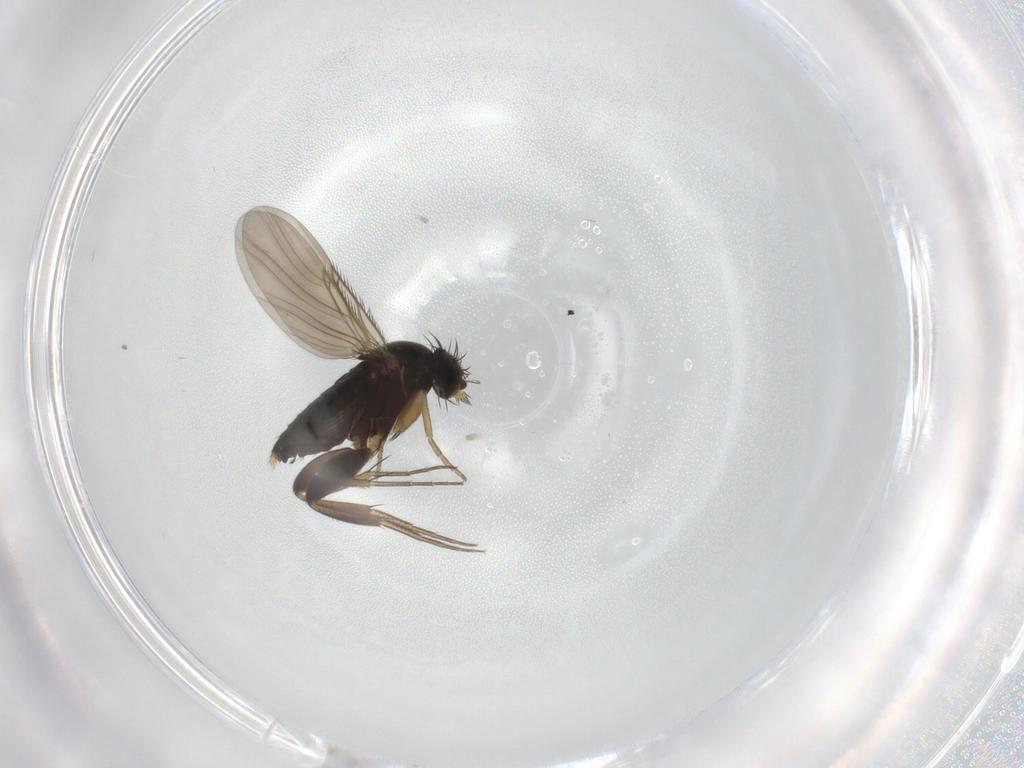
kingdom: Animalia
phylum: Arthropoda
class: Insecta
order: Diptera
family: Phoridae
